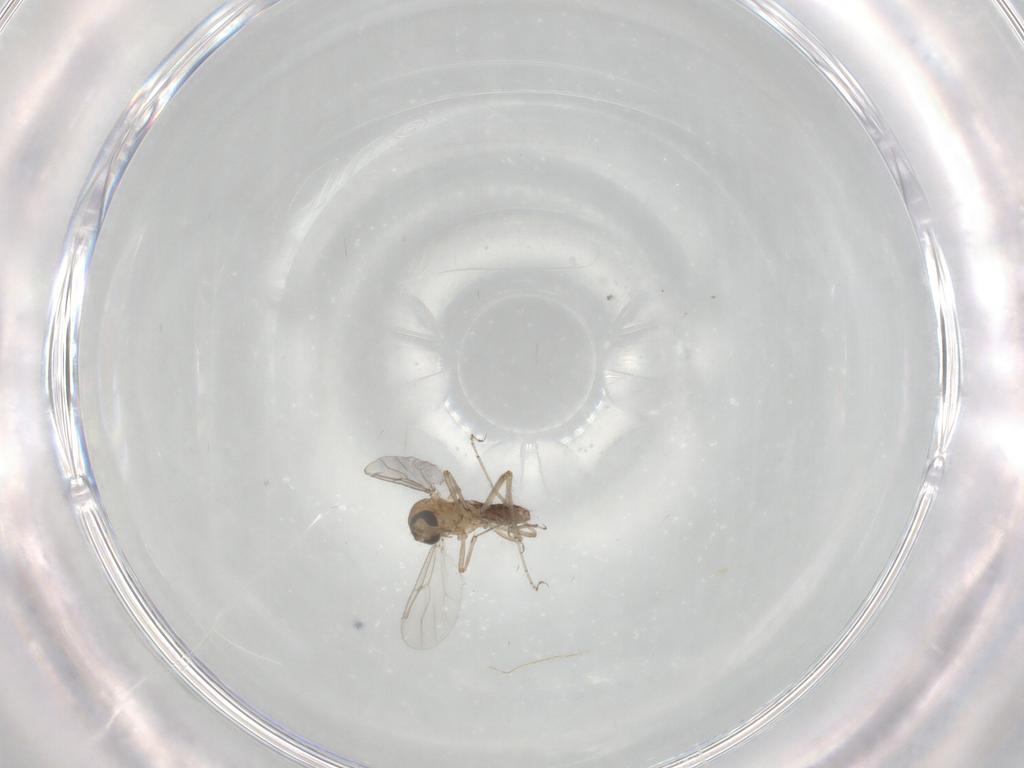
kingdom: Animalia
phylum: Arthropoda
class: Insecta
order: Diptera
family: Ceratopogonidae
